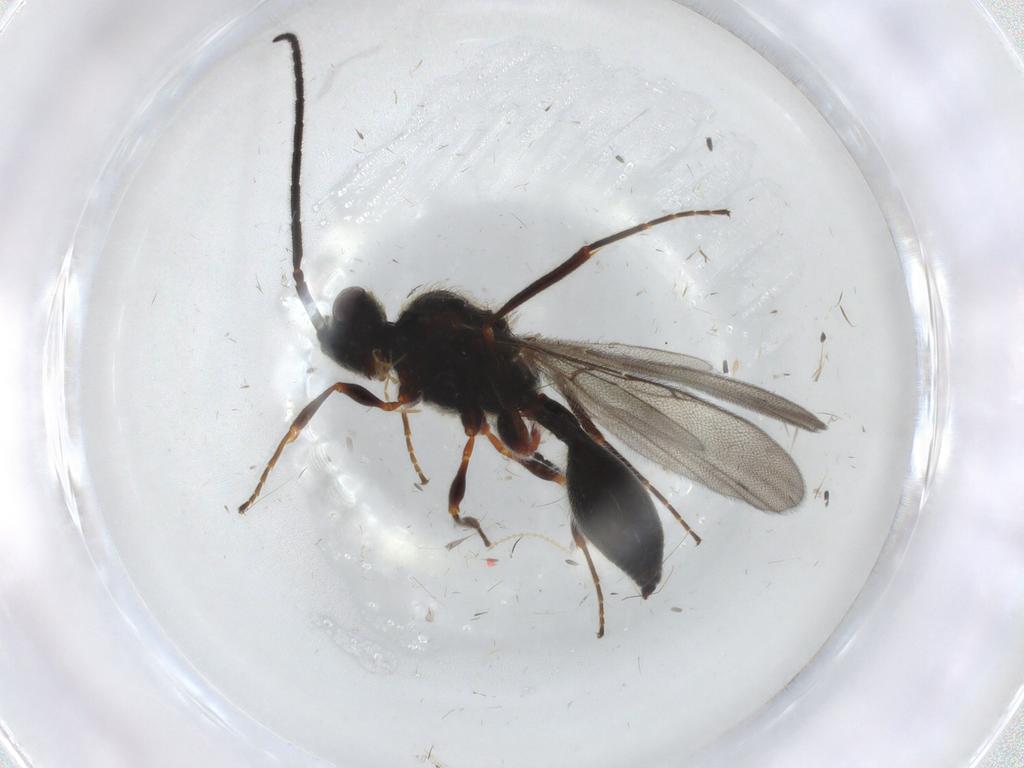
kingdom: Animalia
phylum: Arthropoda
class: Insecta
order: Hymenoptera
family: Diapriidae
